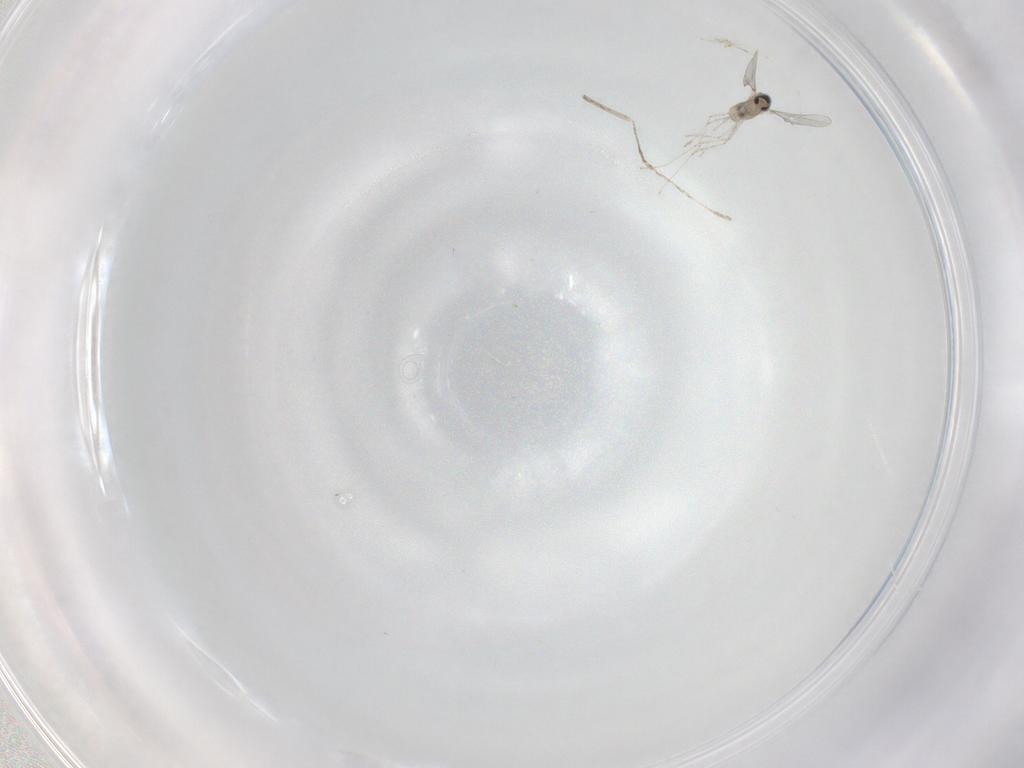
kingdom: Animalia
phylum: Arthropoda
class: Insecta
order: Diptera
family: Cecidomyiidae
